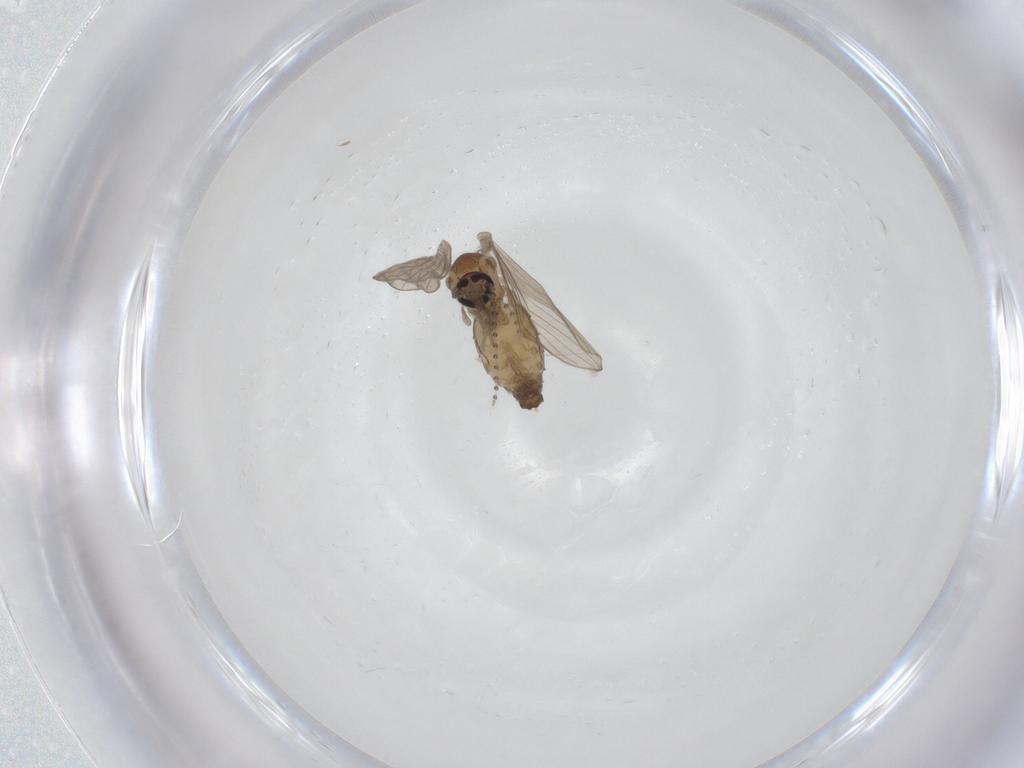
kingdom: Animalia
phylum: Arthropoda
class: Insecta
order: Diptera
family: Psychodidae
